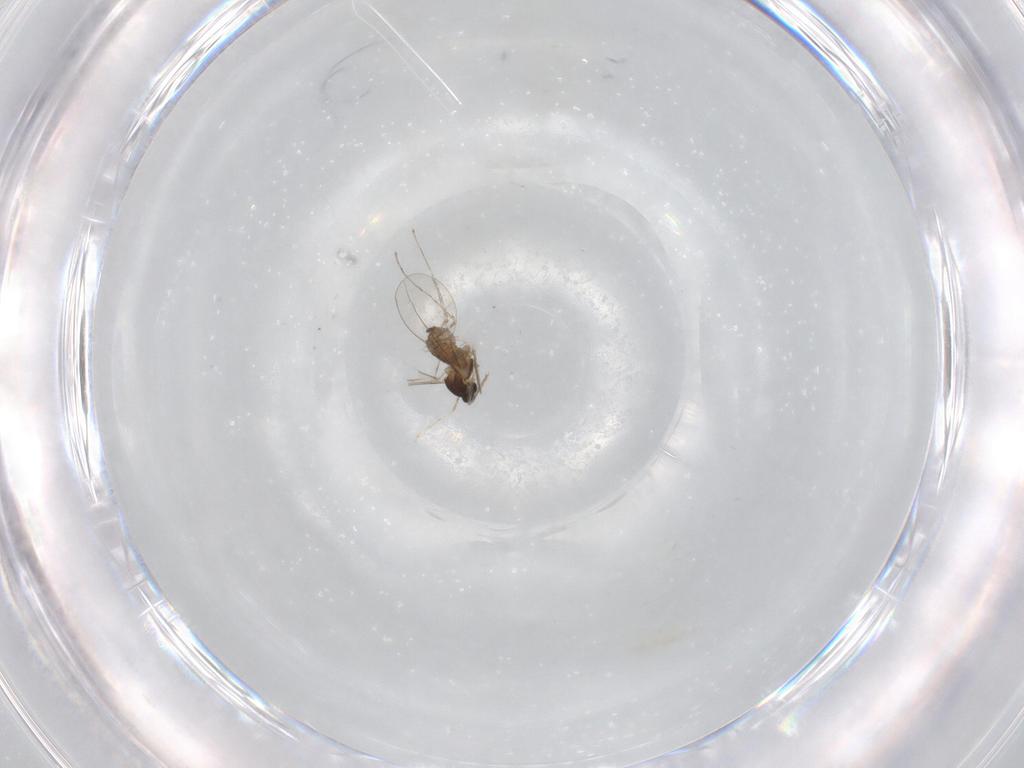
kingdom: Animalia
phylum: Arthropoda
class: Insecta
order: Diptera
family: Cecidomyiidae
